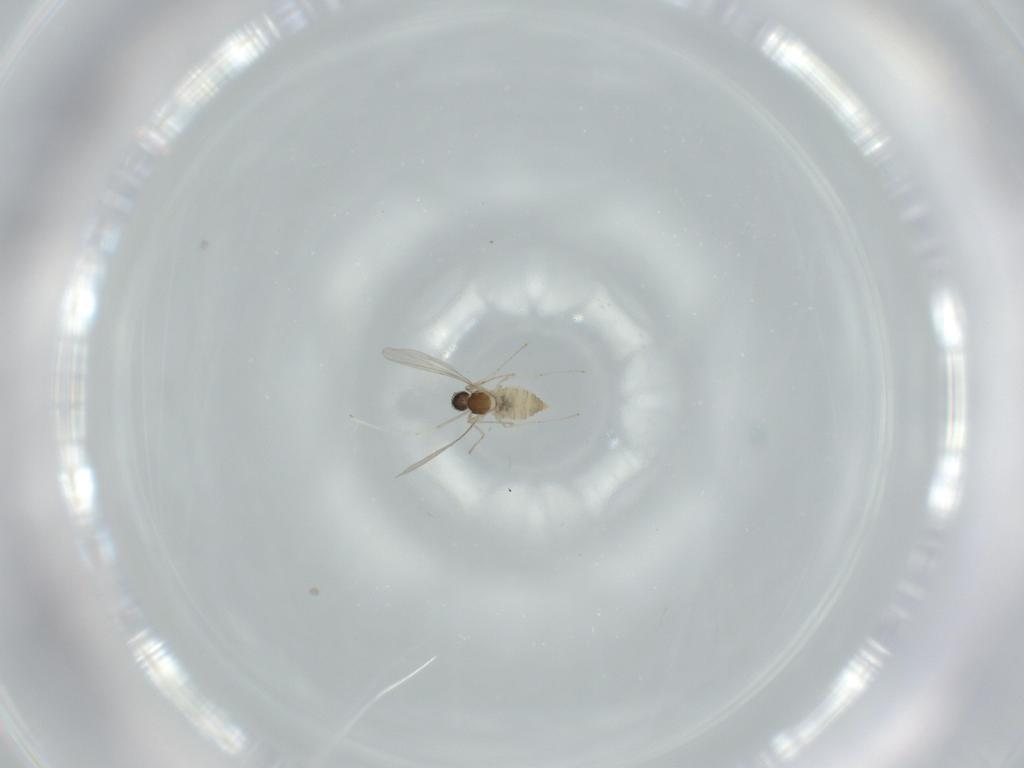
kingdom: Animalia
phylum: Arthropoda
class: Insecta
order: Diptera
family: Cecidomyiidae
